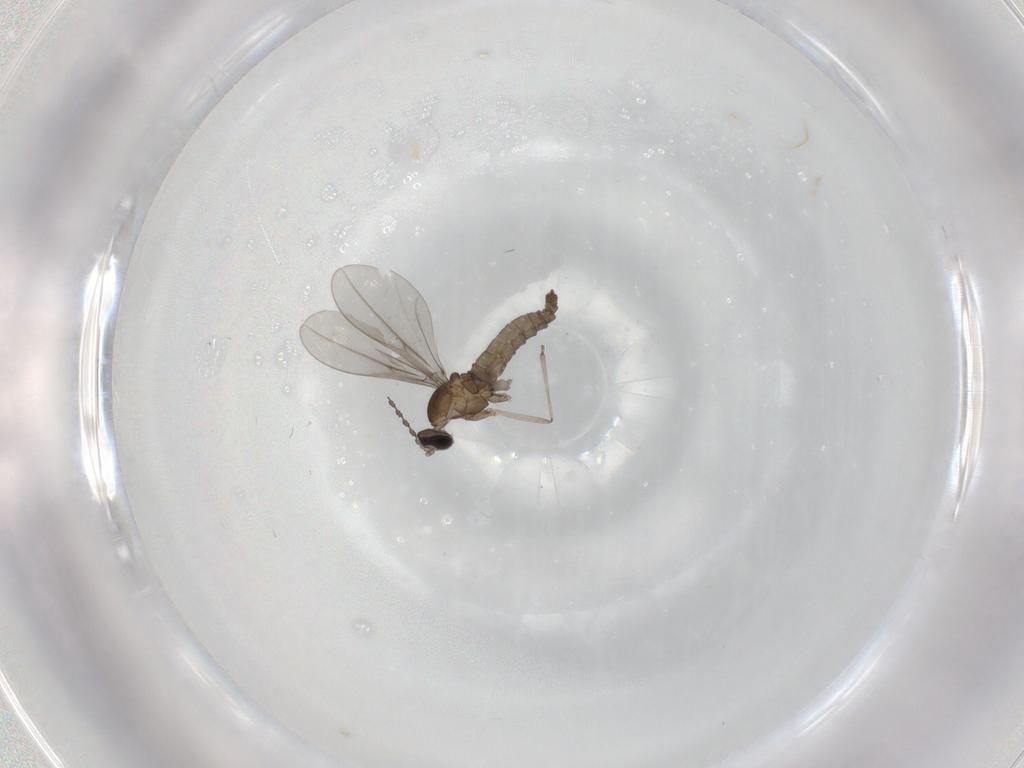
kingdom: Animalia
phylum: Arthropoda
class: Insecta
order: Diptera
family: Cecidomyiidae
